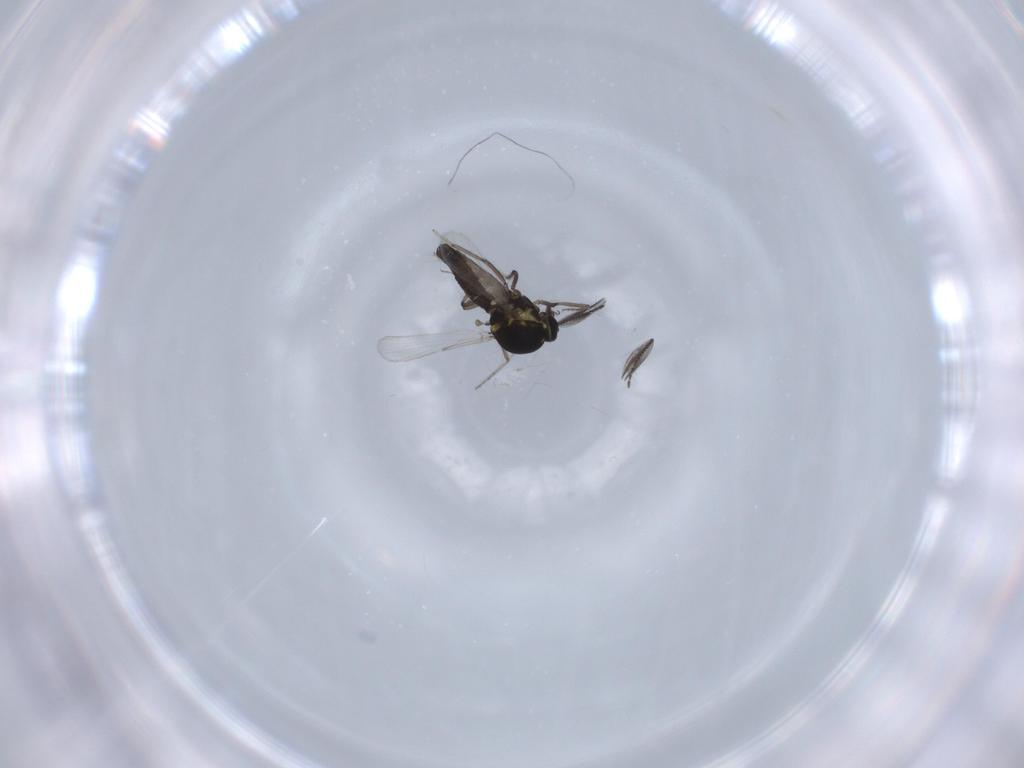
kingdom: Animalia
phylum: Arthropoda
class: Insecta
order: Diptera
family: Ceratopogonidae
